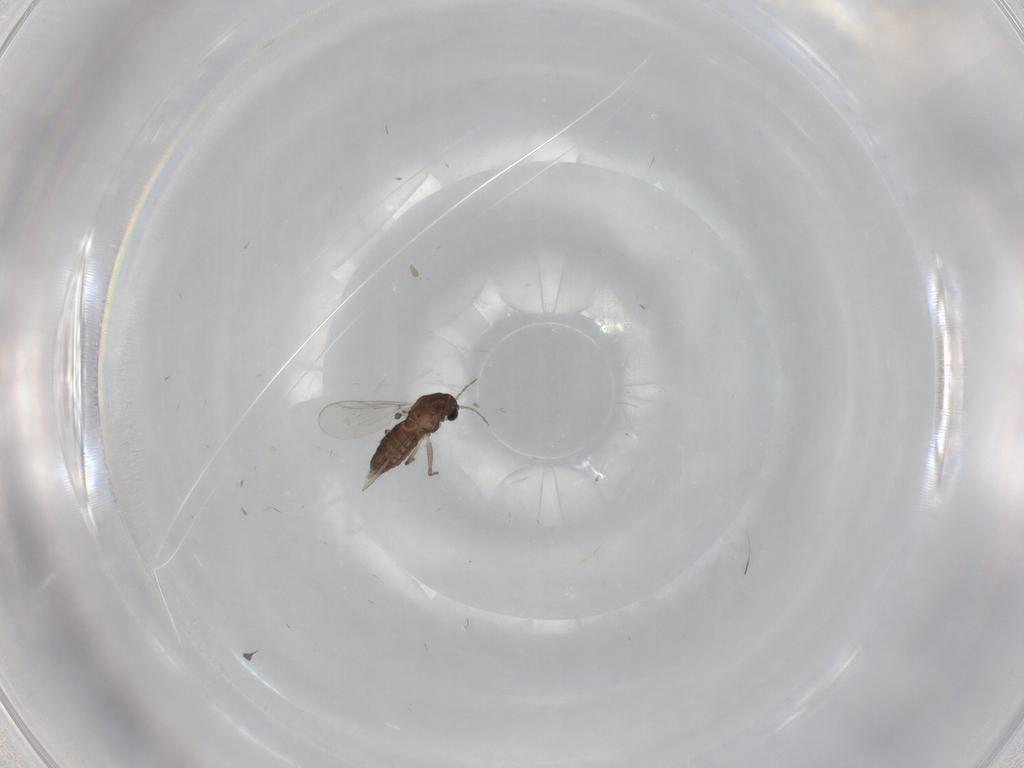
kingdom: Animalia
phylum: Arthropoda
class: Insecta
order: Diptera
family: Chironomidae
